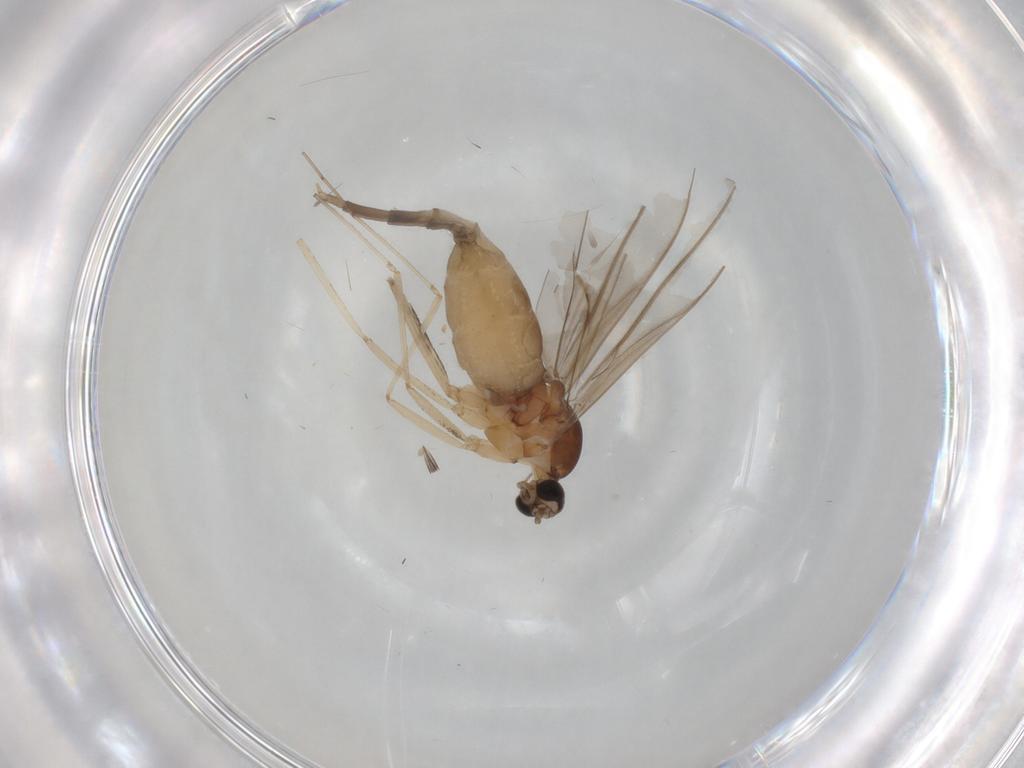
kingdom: Animalia
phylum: Arthropoda
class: Insecta
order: Diptera
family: Cecidomyiidae
